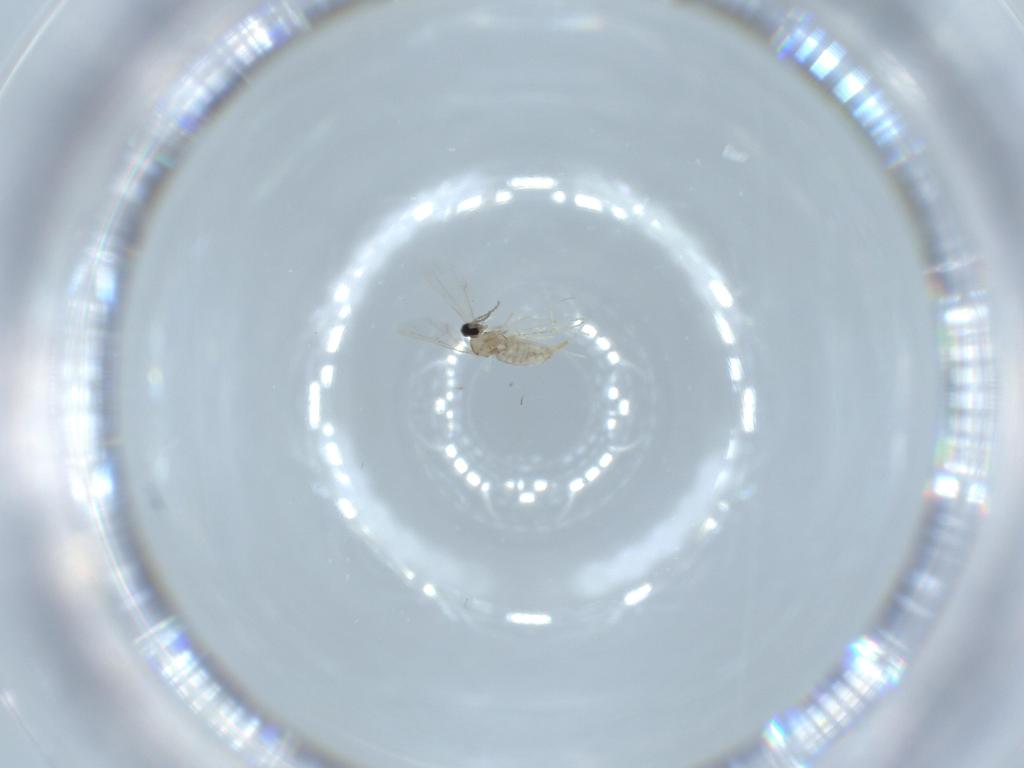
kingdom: Animalia
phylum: Arthropoda
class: Insecta
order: Diptera
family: Cecidomyiidae
